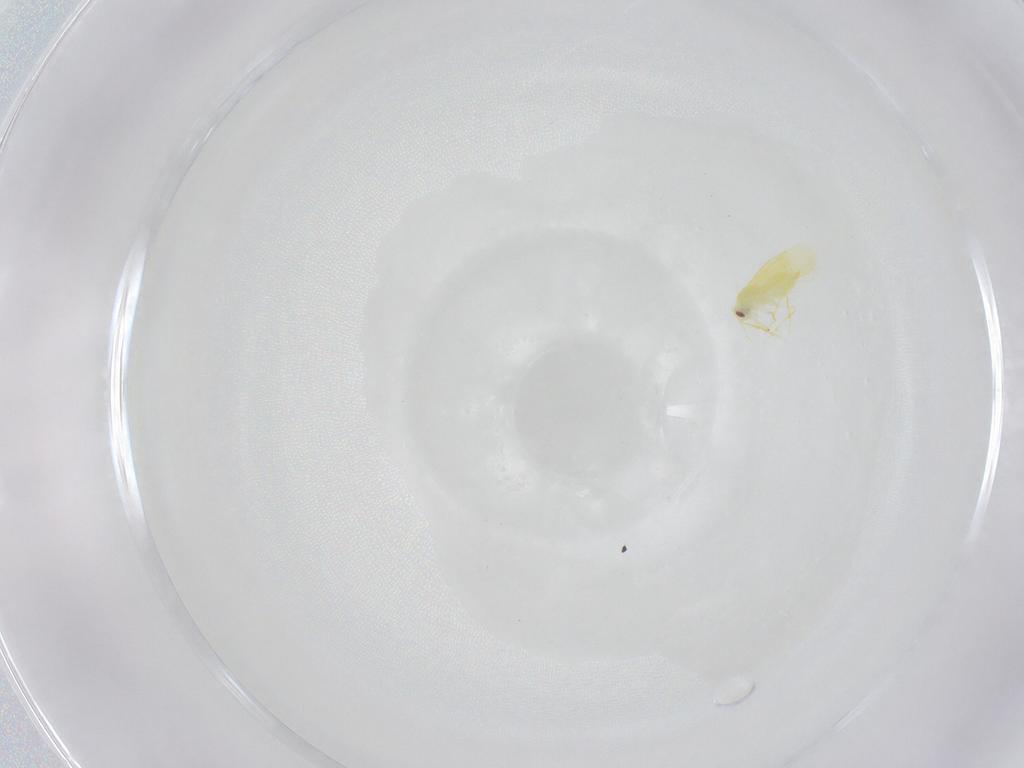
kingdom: Animalia
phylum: Arthropoda
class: Insecta
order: Hemiptera
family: Aleyrodidae
